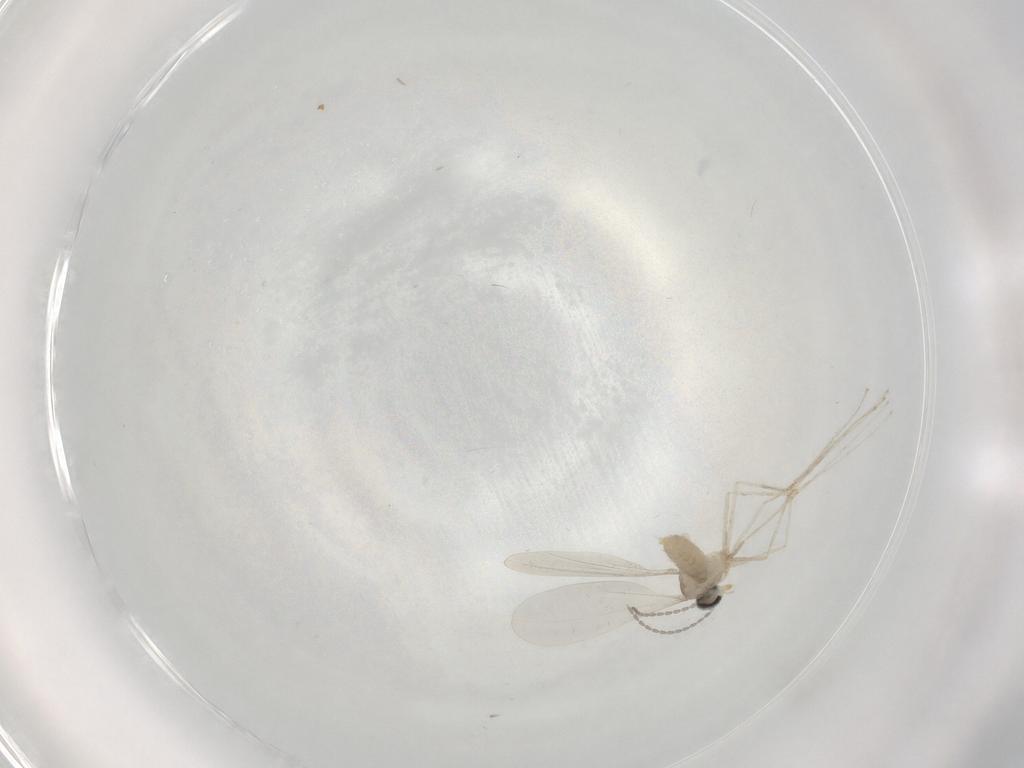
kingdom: Animalia
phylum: Arthropoda
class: Insecta
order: Diptera
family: Cecidomyiidae
